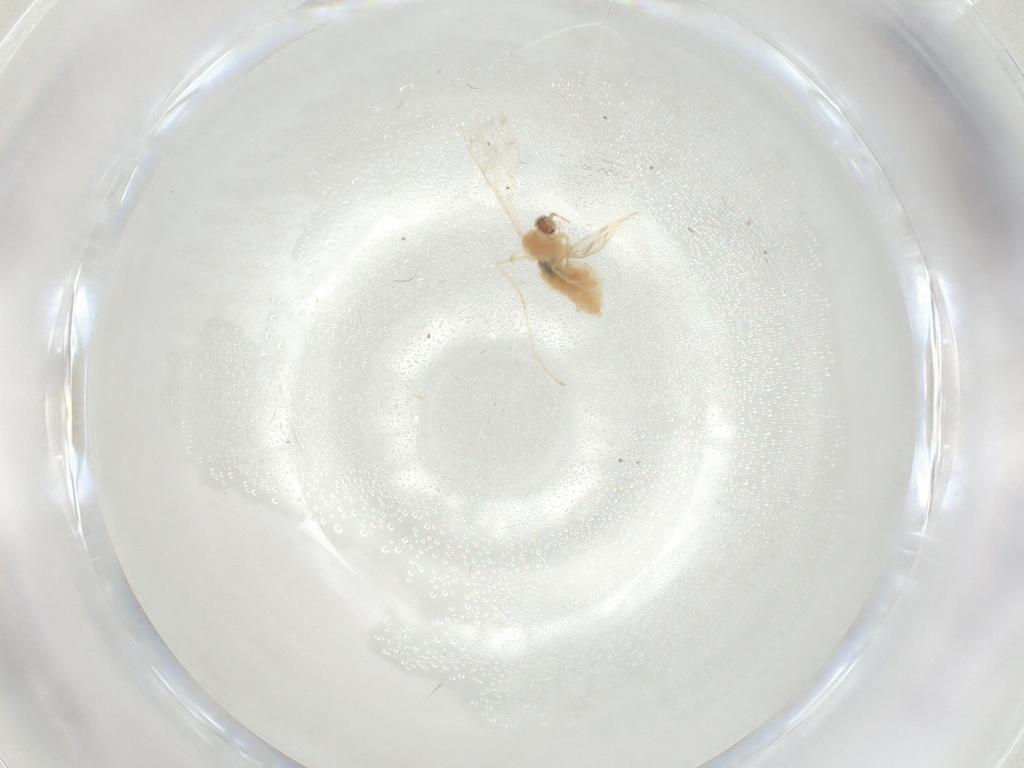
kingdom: Animalia
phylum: Arthropoda
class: Insecta
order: Diptera
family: Cecidomyiidae
